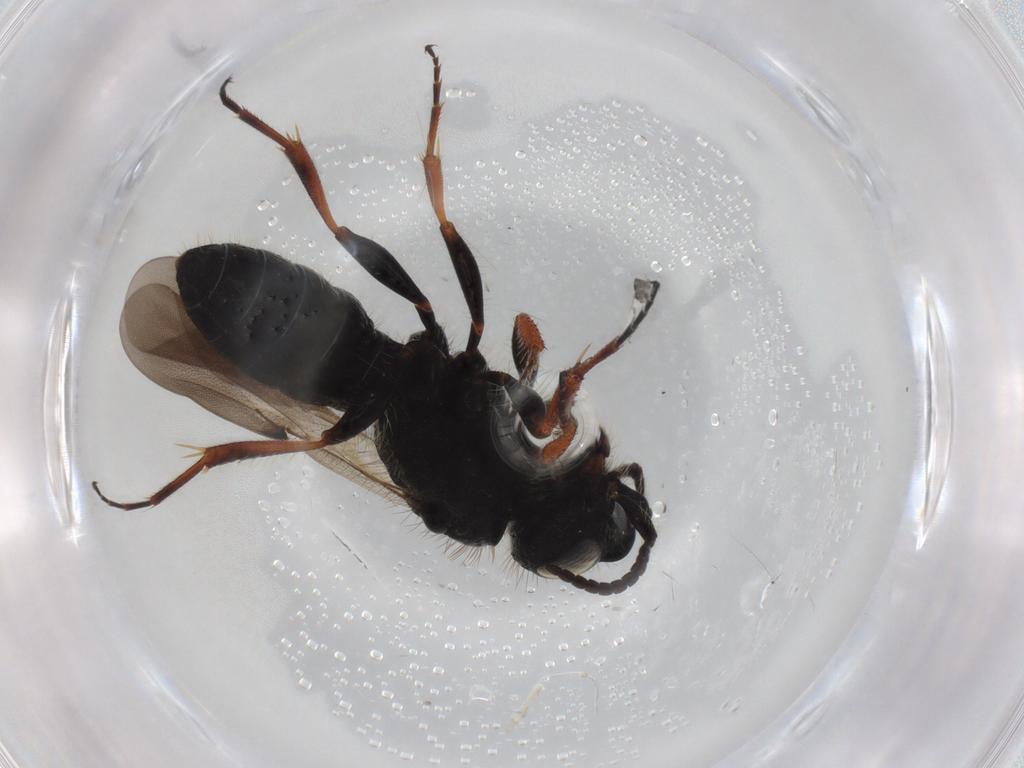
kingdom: Animalia
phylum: Arthropoda
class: Insecta
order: Hymenoptera
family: Scelionidae
